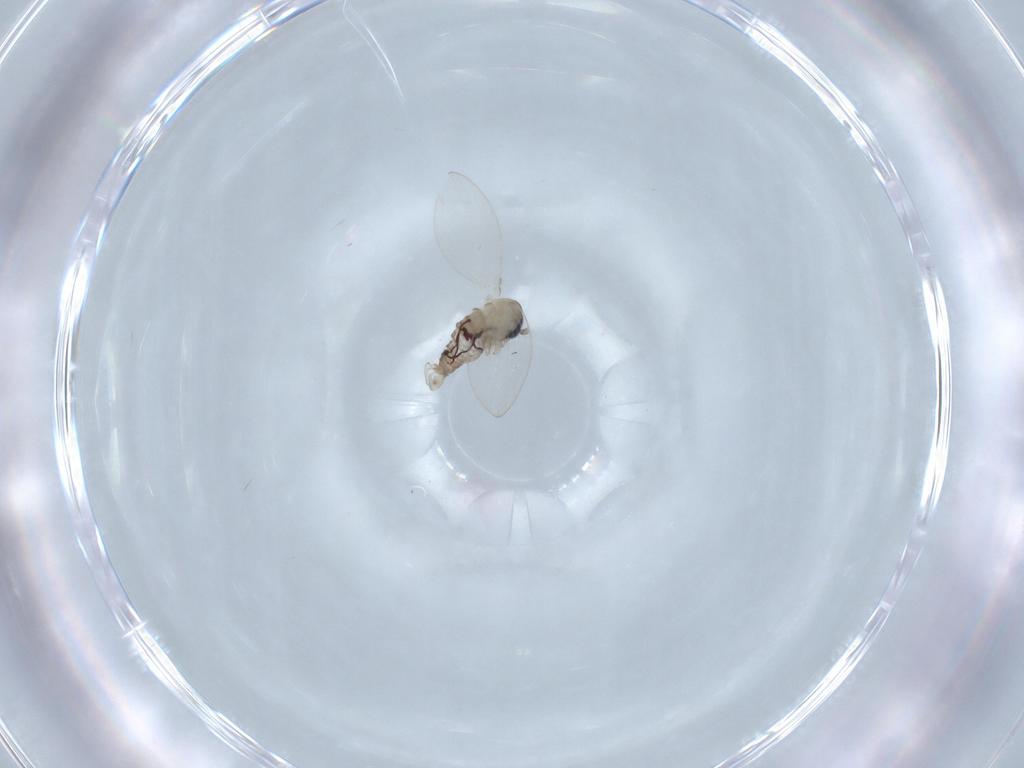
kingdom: Animalia
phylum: Arthropoda
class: Insecta
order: Diptera
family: Psychodidae
